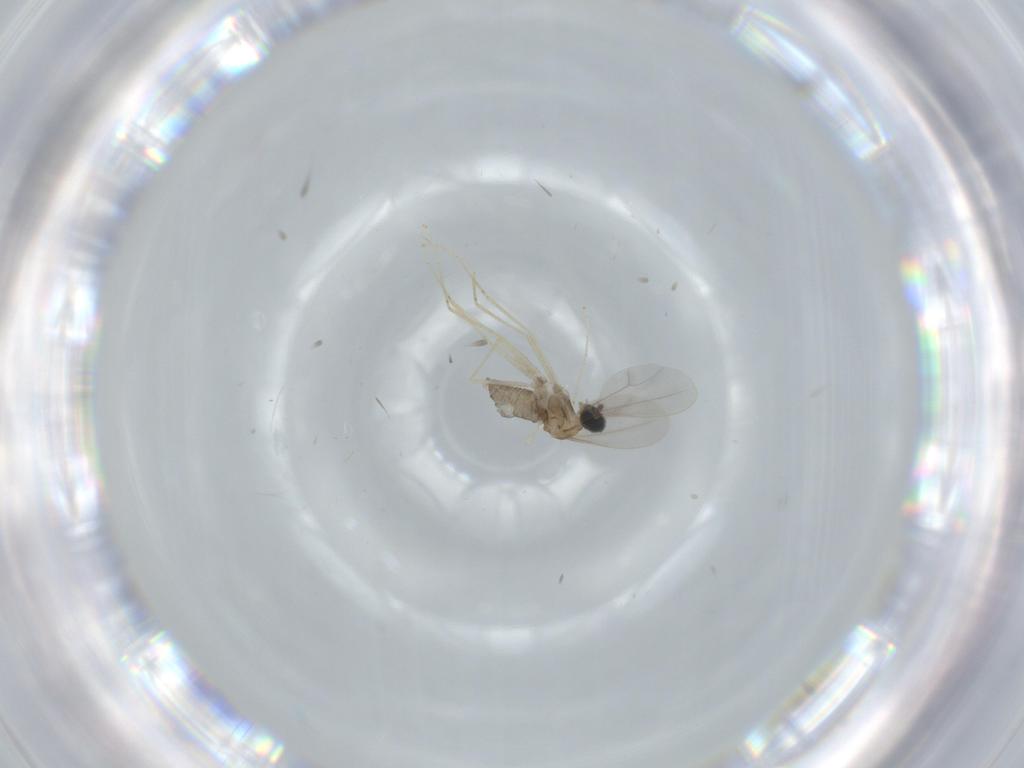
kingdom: Animalia
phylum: Arthropoda
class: Insecta
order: Diptera
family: Cecidomyiidae
